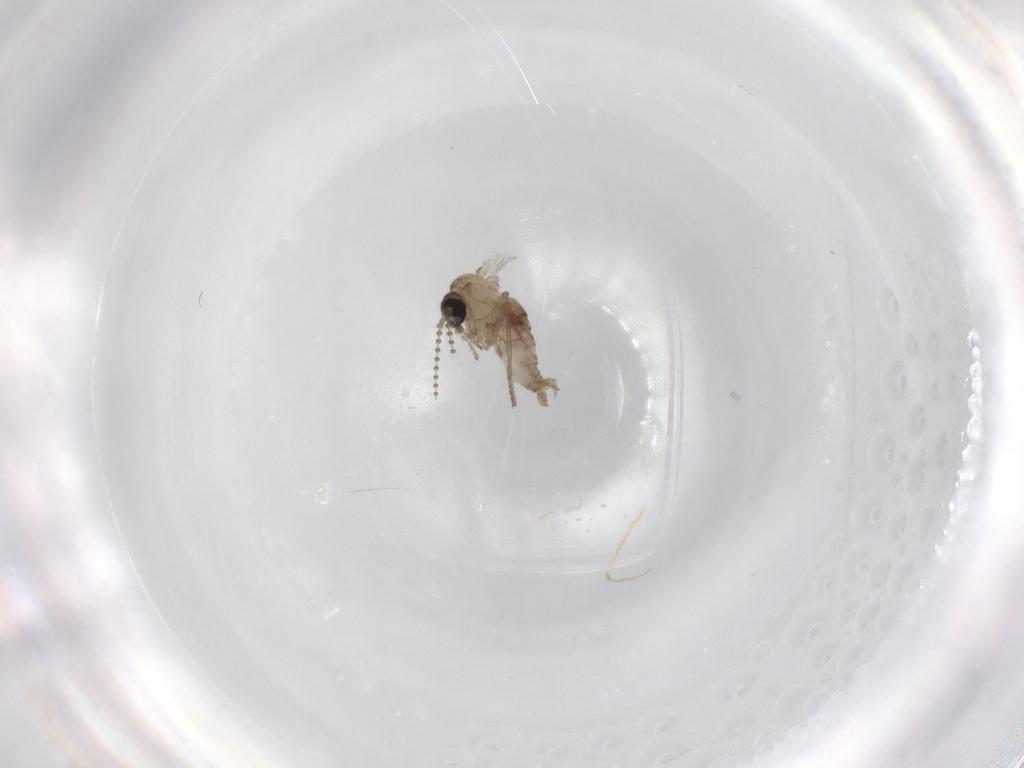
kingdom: Animalia
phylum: Arthropoda
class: Insecta
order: Diptera
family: Psychodidae
